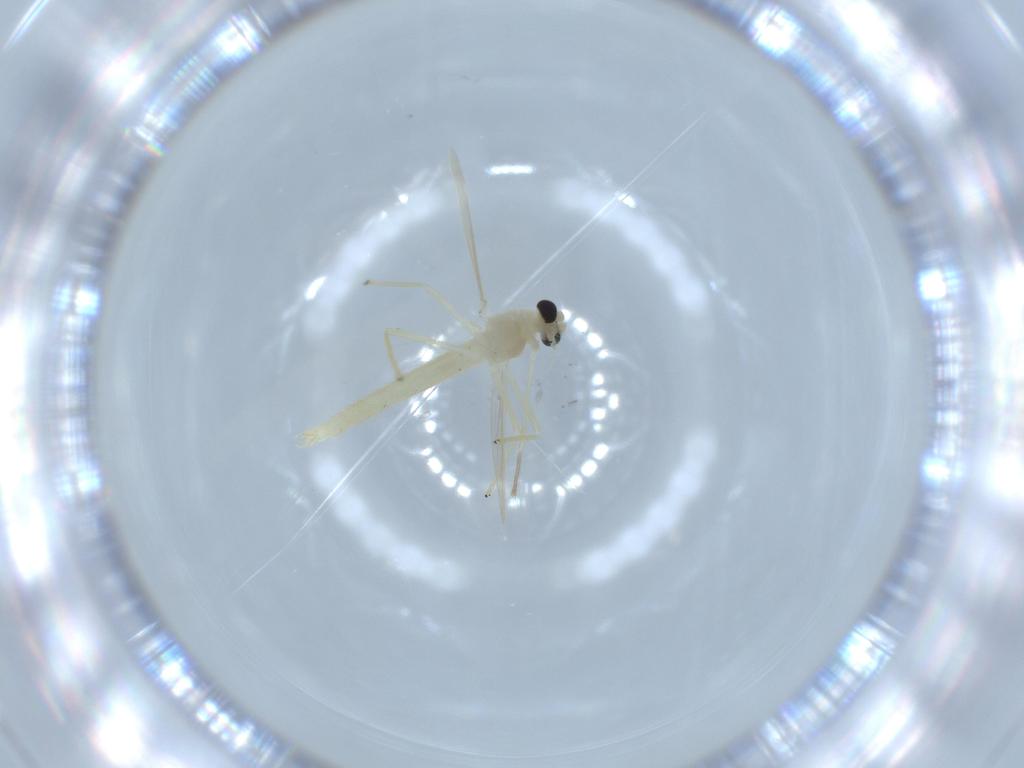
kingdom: Animalia
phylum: Arthropoda
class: Insecta
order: Diptera
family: Chironomidae
